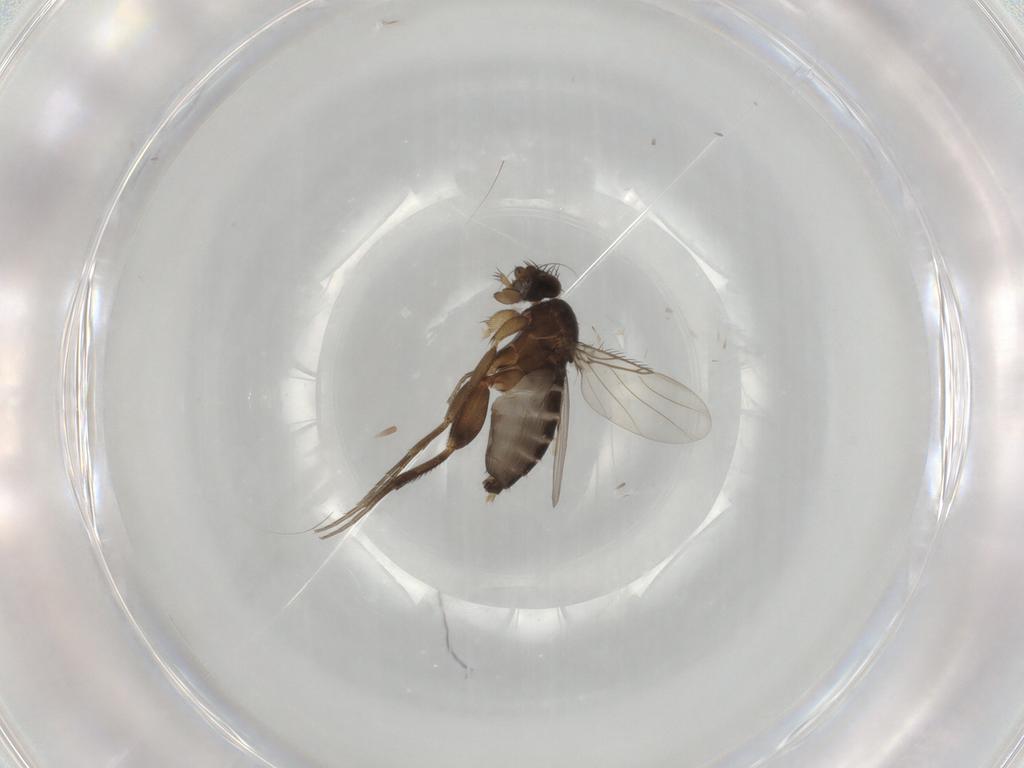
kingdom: Animalia
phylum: Arthropoda
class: Insecta
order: Diptera
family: Phoridae
